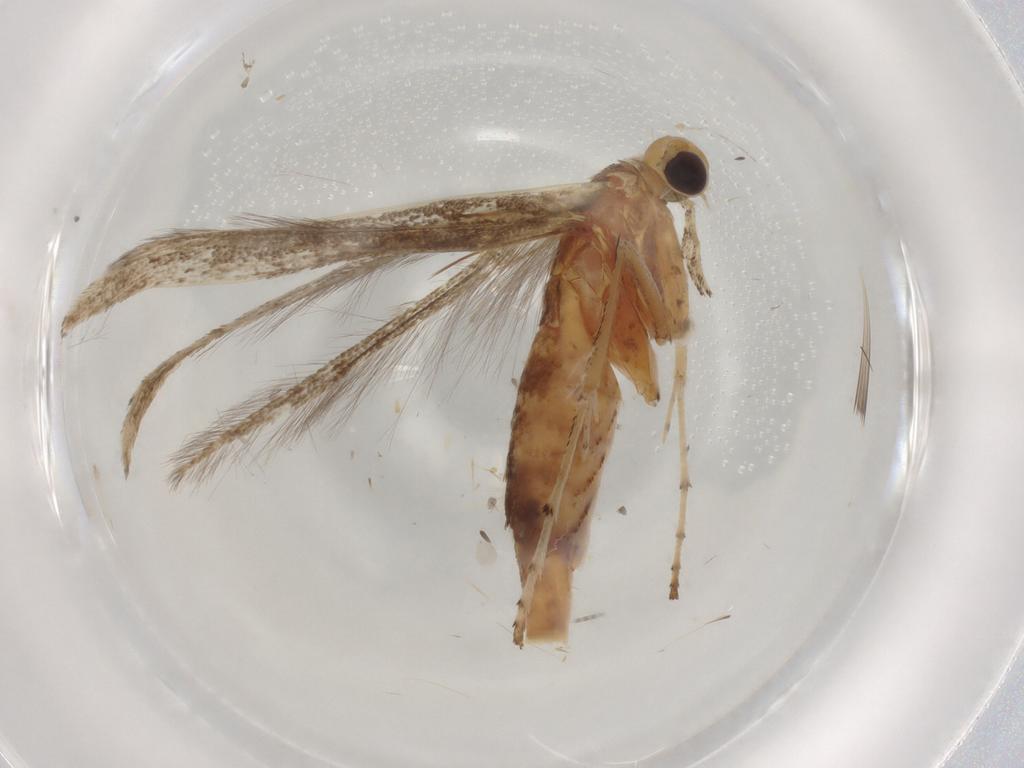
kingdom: Animalia
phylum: Arthropoda
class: Insecta
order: Lepidoptera
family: Gracillariidae
